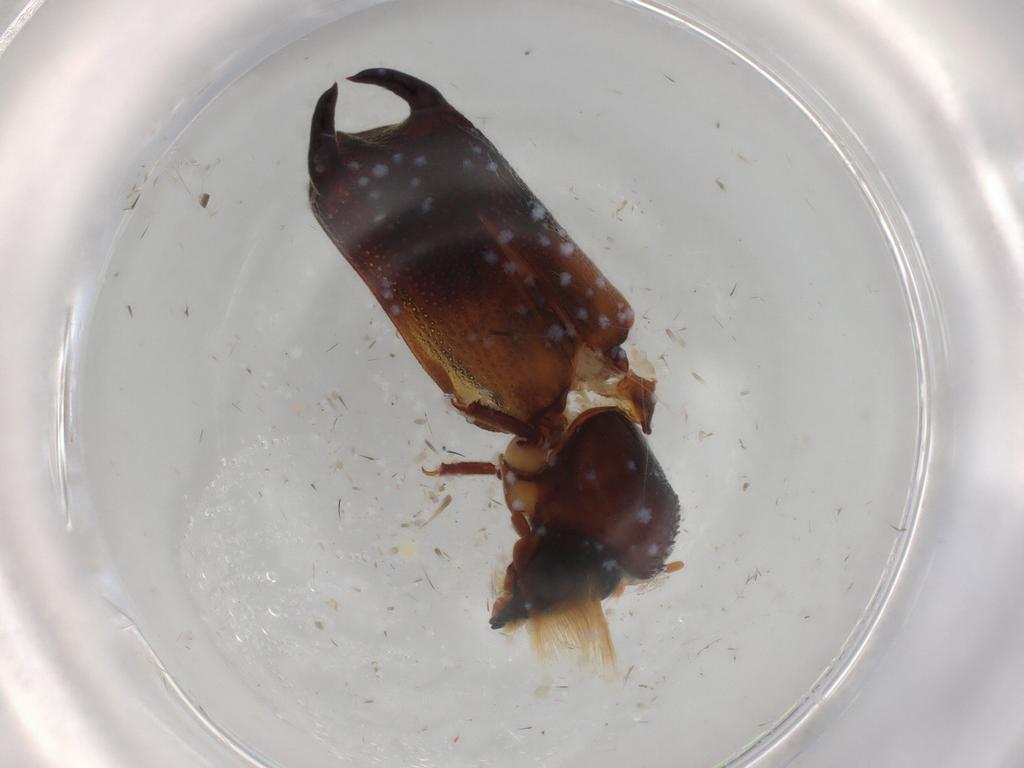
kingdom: Animalia
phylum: Arthropoda
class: Insecta
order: Coleoptera
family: Bostrichidae
